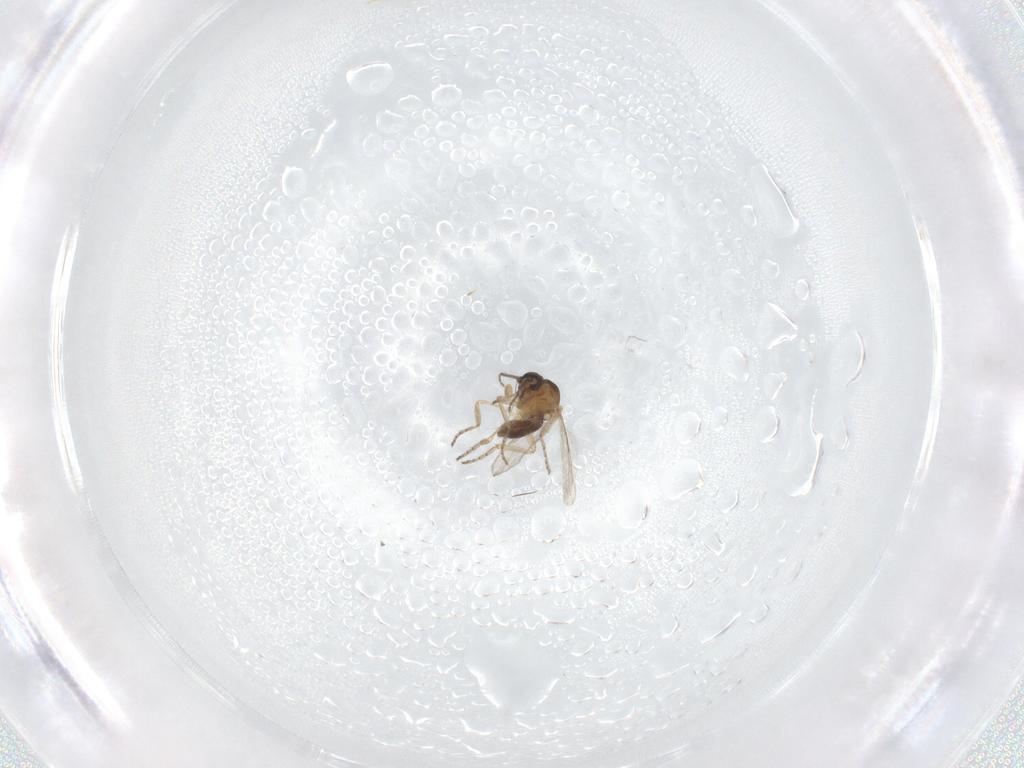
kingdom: Animalia
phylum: Arthropoda
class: Insecta
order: Diptera
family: Ceratopogonidae
